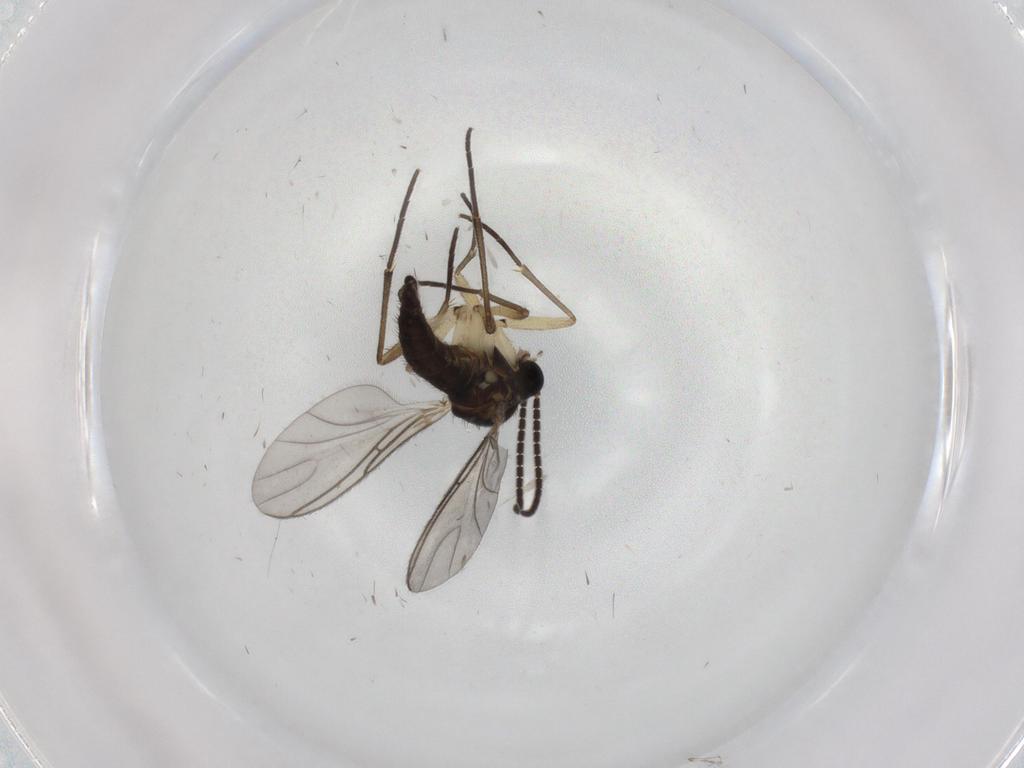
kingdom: Animalia
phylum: Arthropoda
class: Insecta
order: Diptera
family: Sciaridae
